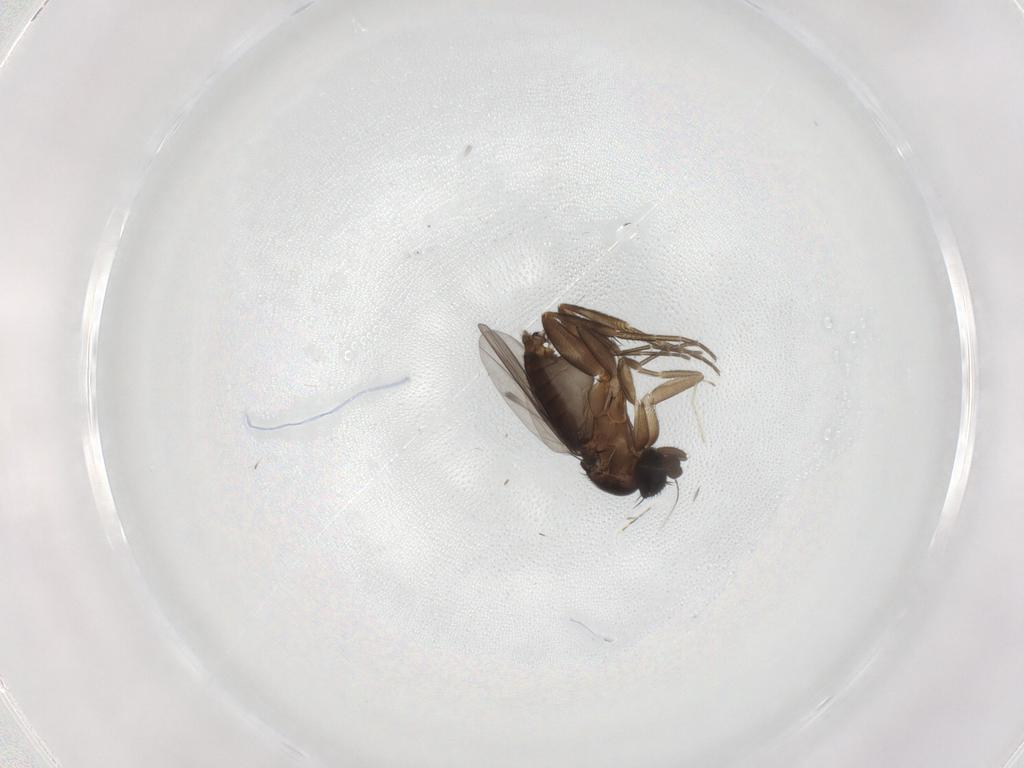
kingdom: Animalia
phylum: Arthropoda
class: Insecta
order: Diptera
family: Phoridae
